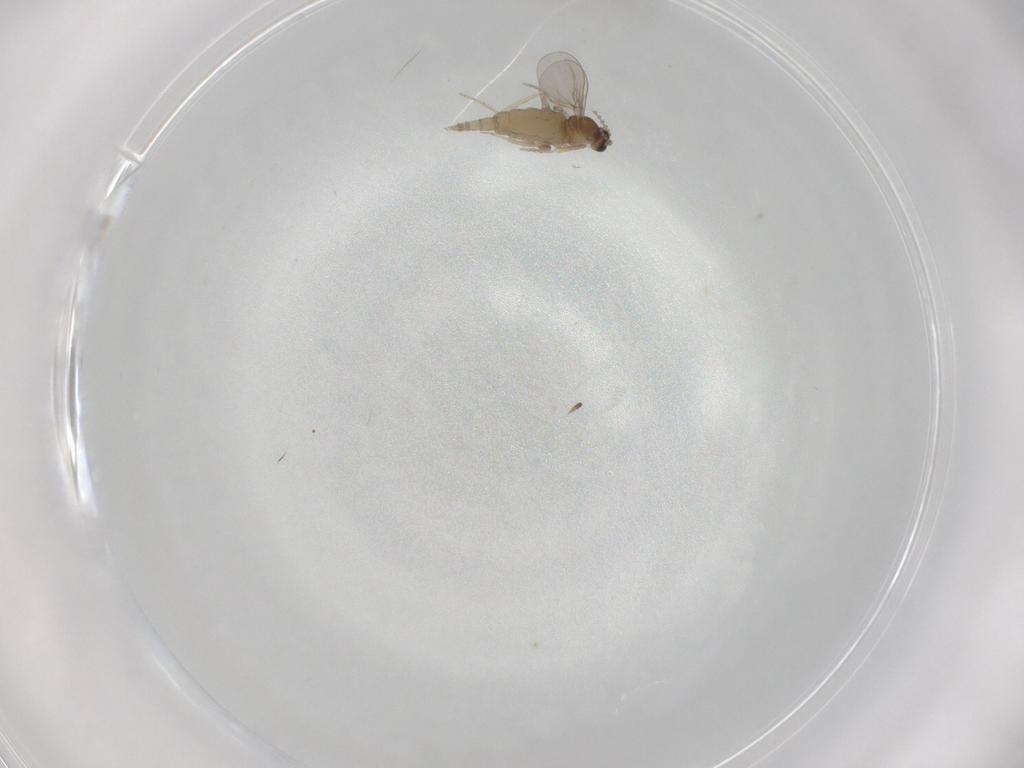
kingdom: Animalia
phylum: Arthropoda
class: Insecta
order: Diptera
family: Cecidomyiidae
